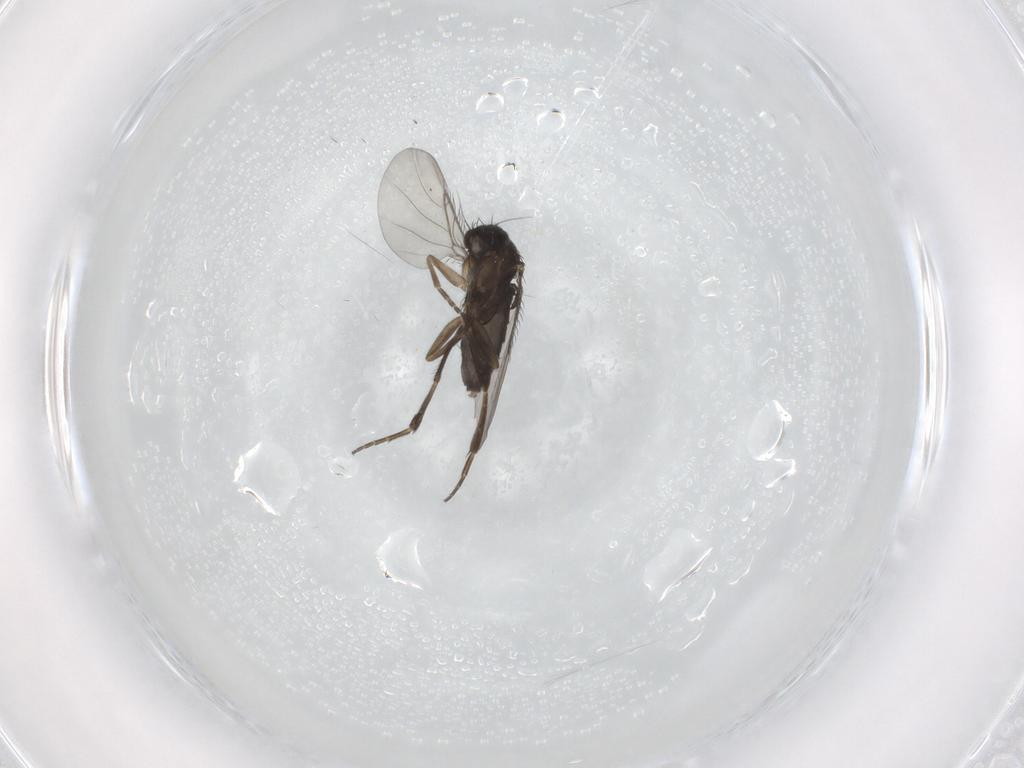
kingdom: Animalia
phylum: Arthropoda
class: Insecta
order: Diptera
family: Phoridae
